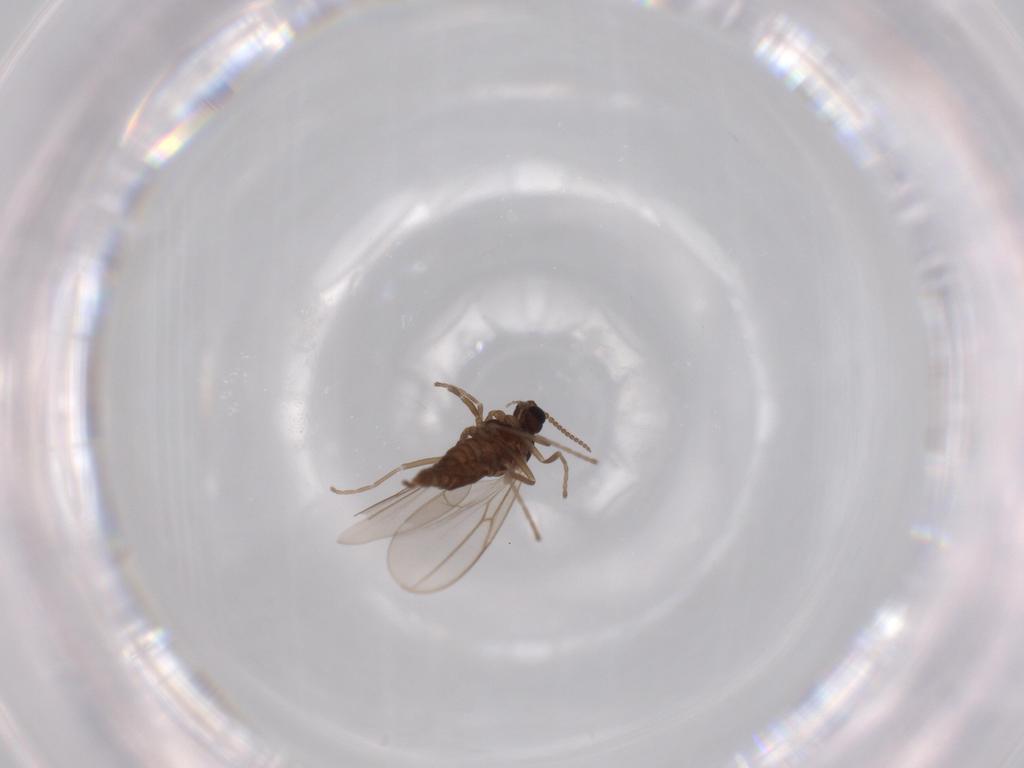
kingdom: Animalia
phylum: Arthropoda
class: Insecta
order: Diptera
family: Cecidomyiidae
